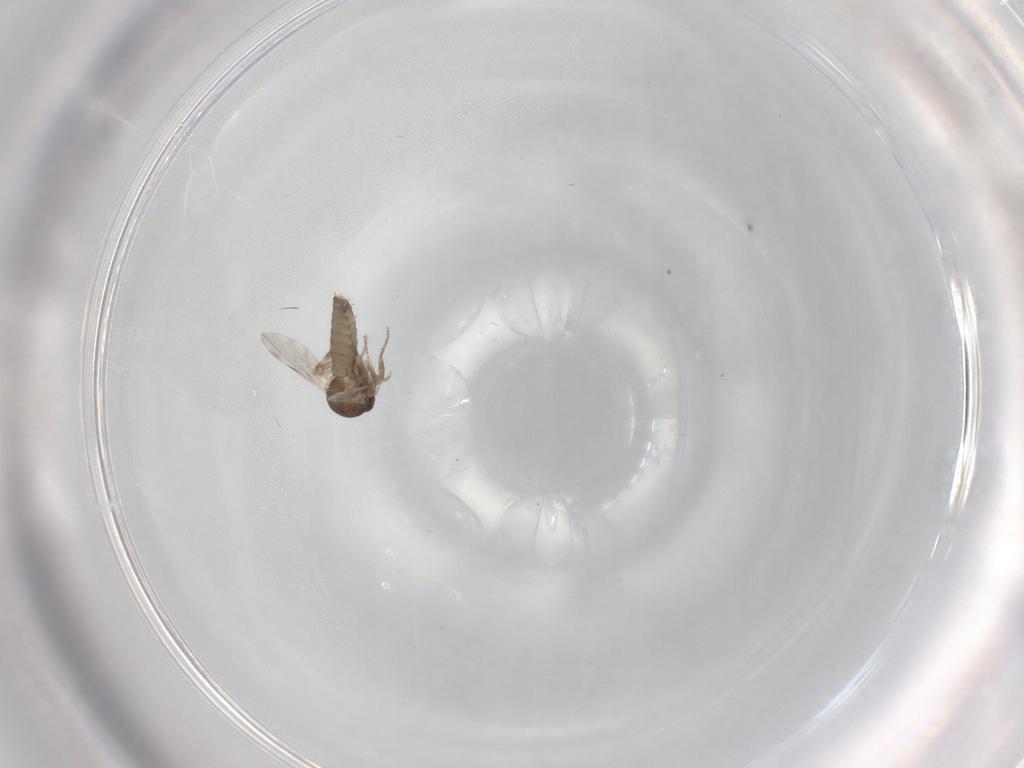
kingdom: Animalia
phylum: Arthropoda
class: Insecta
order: Diptera
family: Ceratopogonidae
